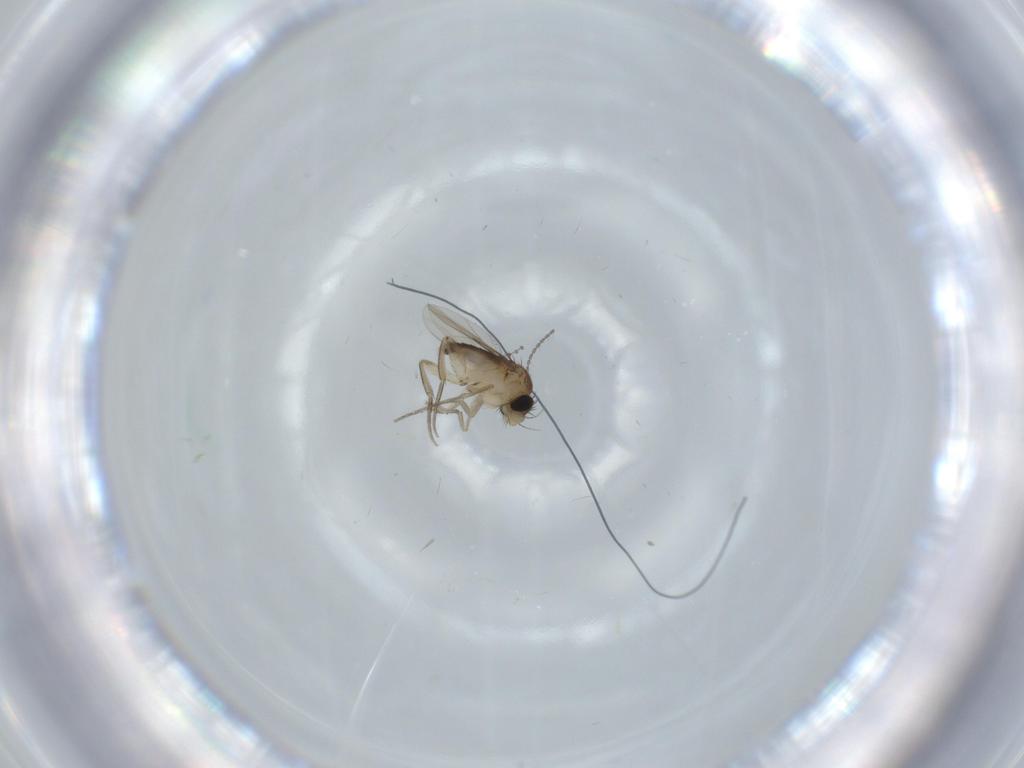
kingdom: Animalia
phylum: Arthropoda
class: Insecta
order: Diptera
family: Cecidomyiidae
